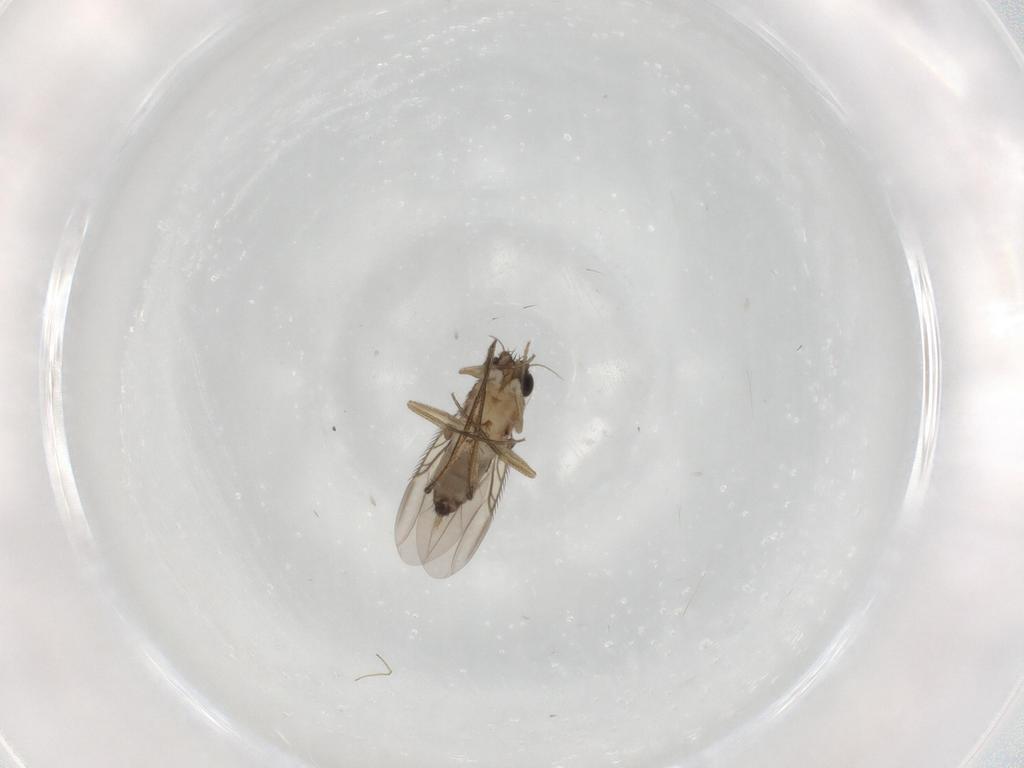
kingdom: Animalia
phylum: Arthropoda
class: Insecta
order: Diptera
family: Phoridae
